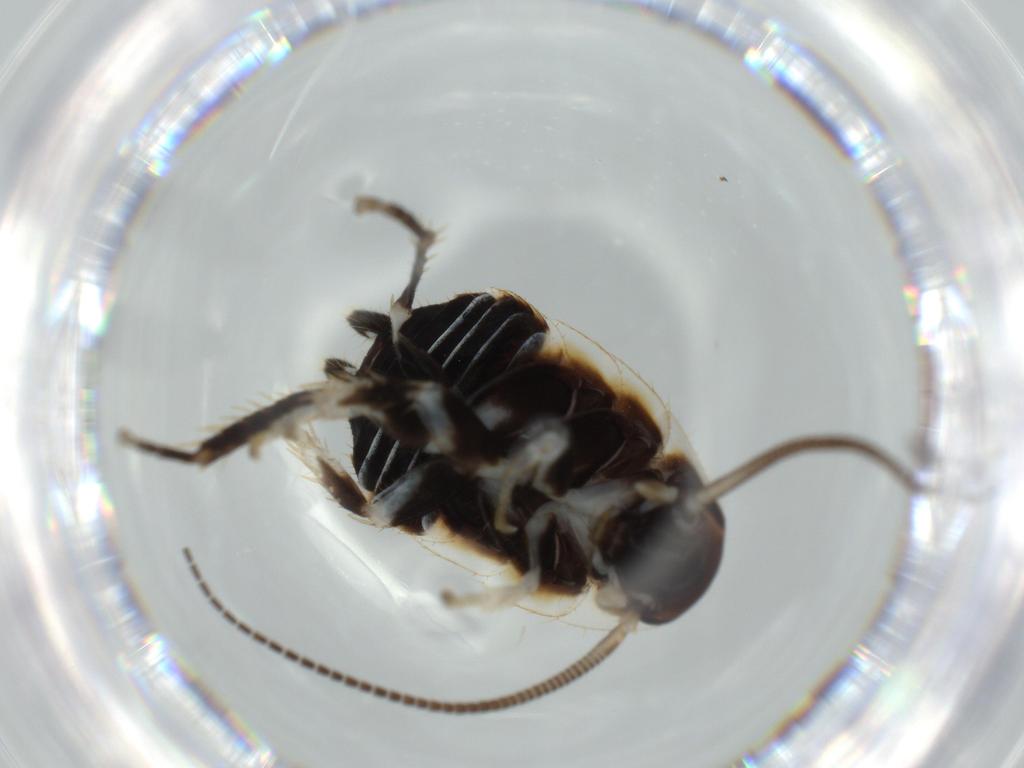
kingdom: Animalia
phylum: Arthropoda
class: Insecta
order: Blattodea
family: Ectobiidae
